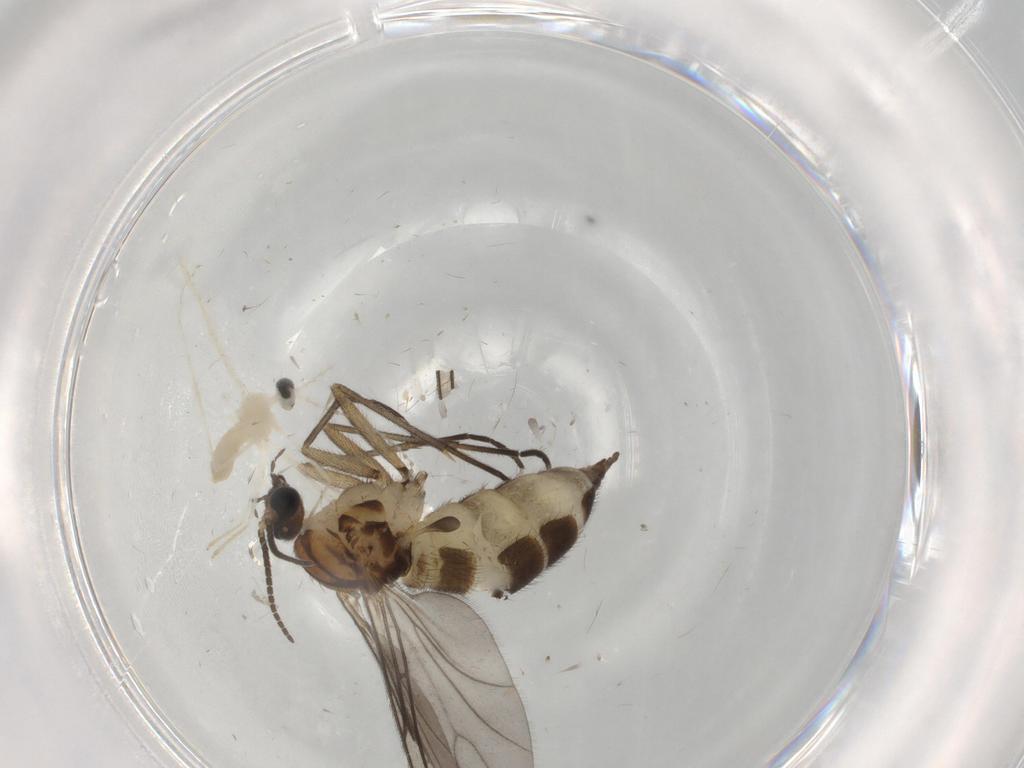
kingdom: Animalia
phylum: Arthropoda
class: Insecta
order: Diptera
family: Sciaridae
